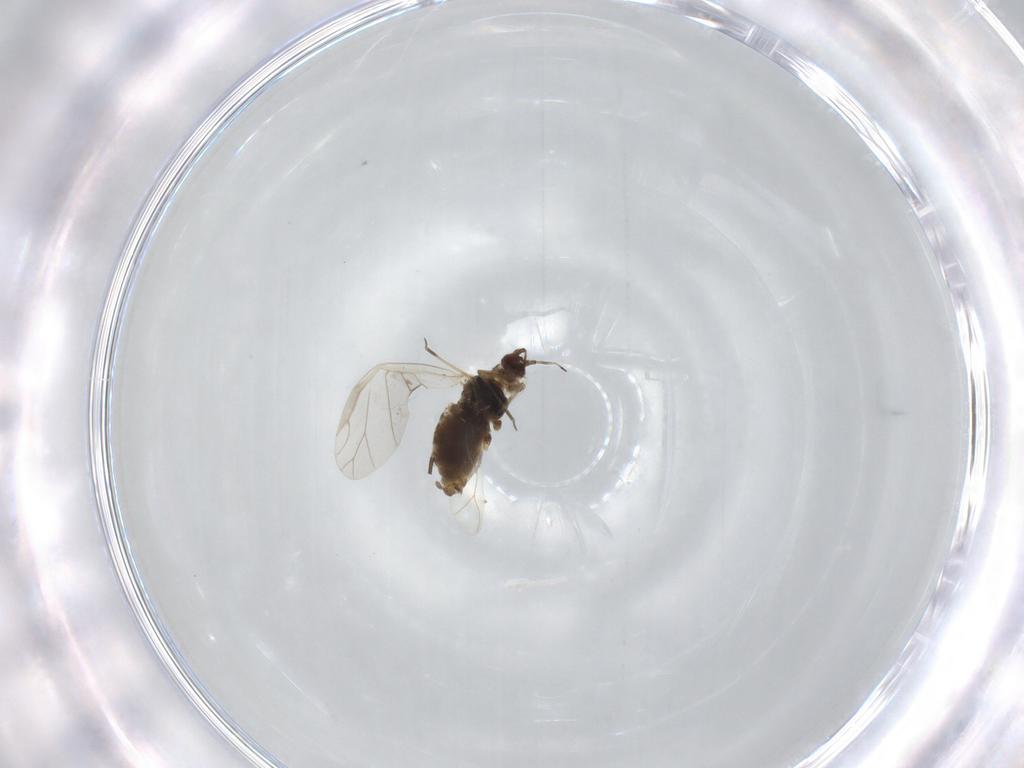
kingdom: Animalia
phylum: Arthropoda
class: Insecta
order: Hemiptera
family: Aphididae
